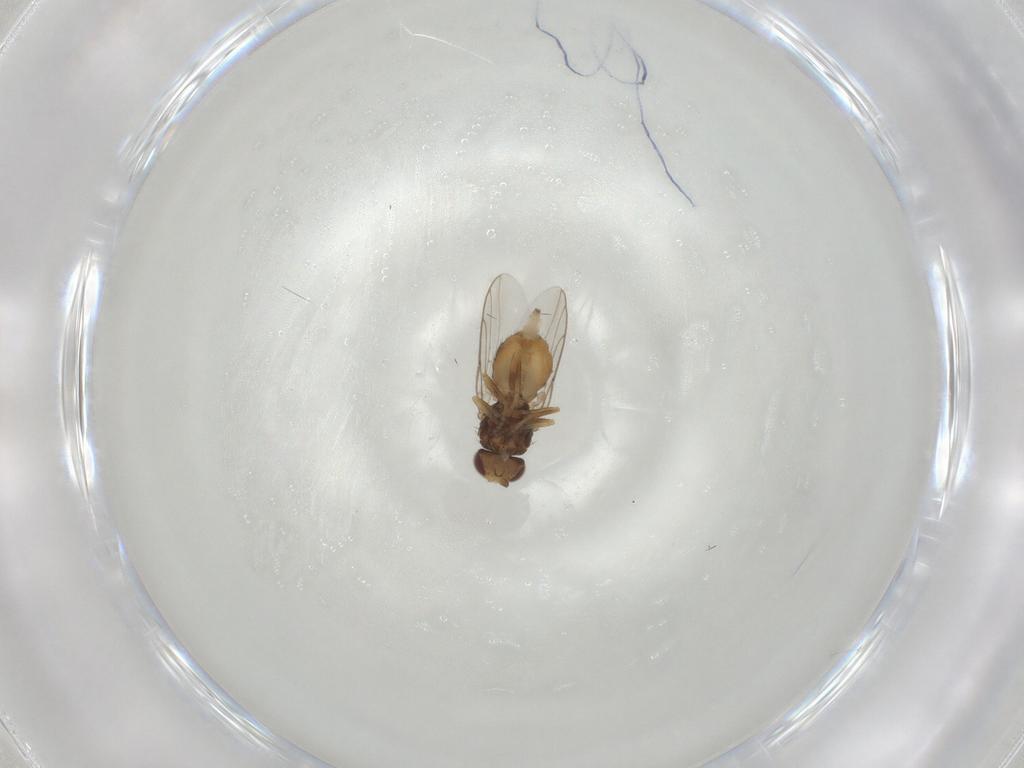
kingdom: Animalia
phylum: Arthropoda
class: Insecta
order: Diptera
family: Chloropidae
